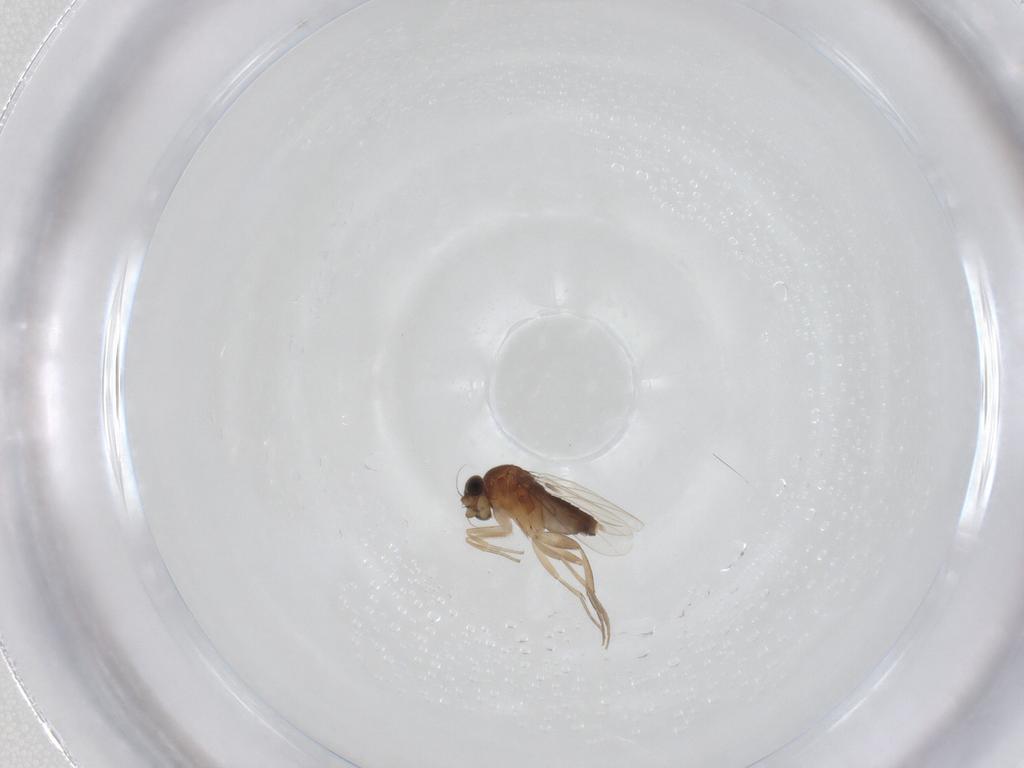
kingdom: Animalia
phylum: Arthropoda
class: Insecta
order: Diptera
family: Phoridae
